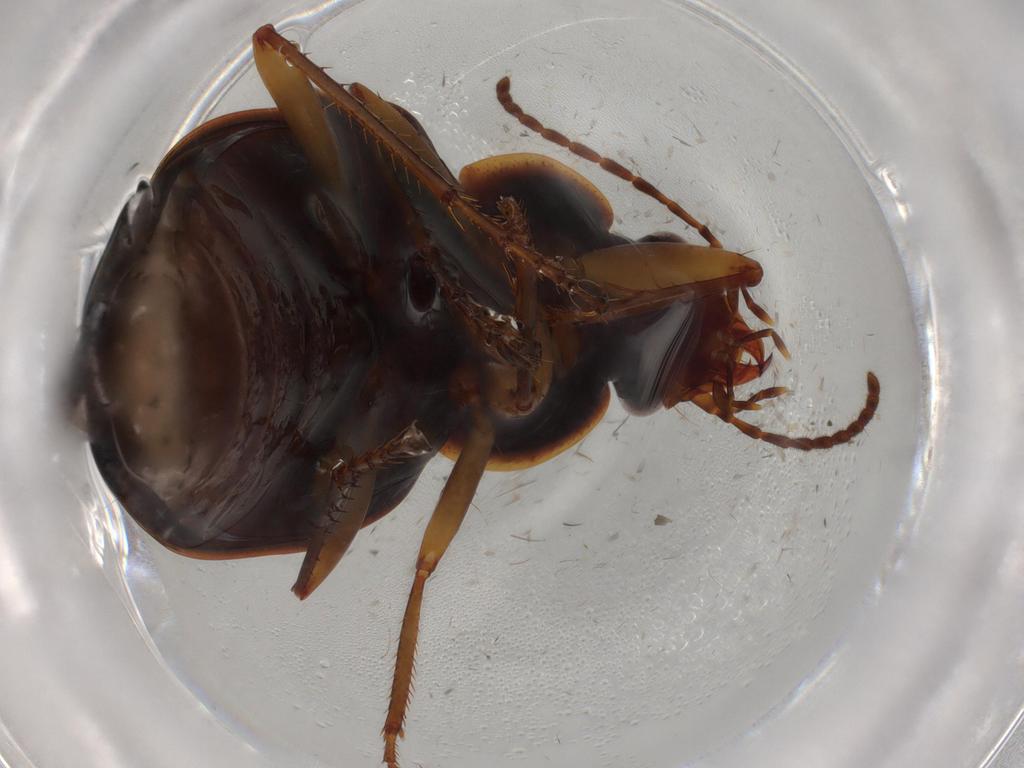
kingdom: Animalia
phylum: Arthropoda
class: Insecta
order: Coleoptera
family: Carabidae
